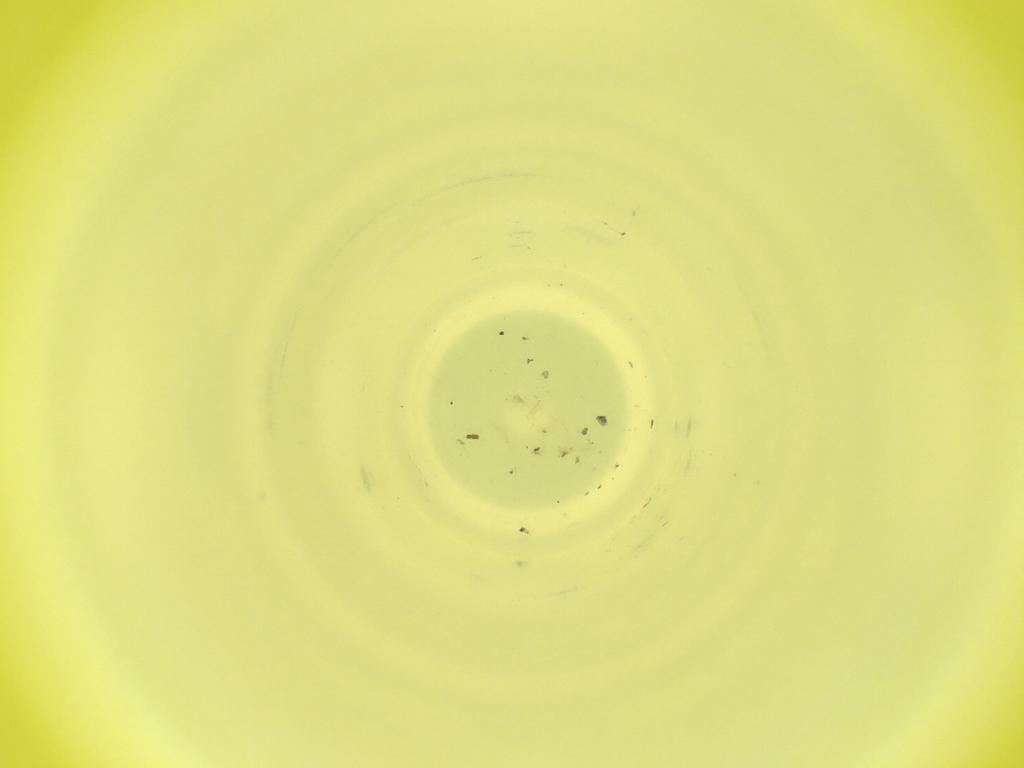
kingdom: Animalia
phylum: Arthropoda
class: Insecta
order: Diptera
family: Cecidomyiidae
